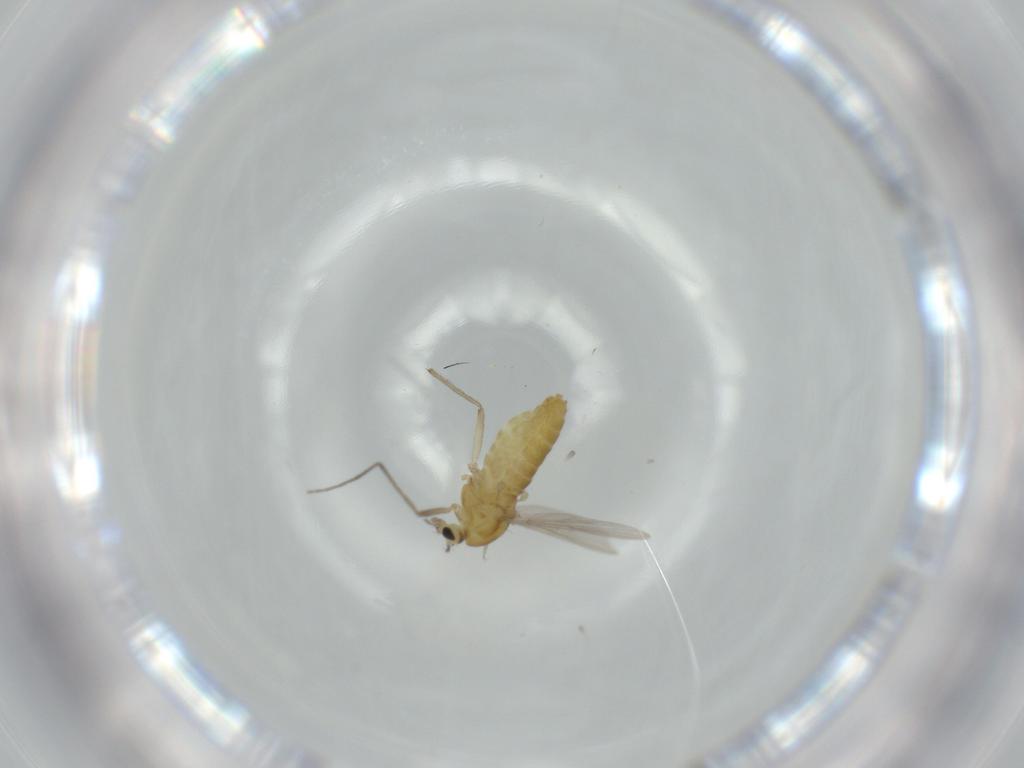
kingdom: Animalia
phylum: Arthropoda
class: Insecta
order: Diptera
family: Chironomidae
